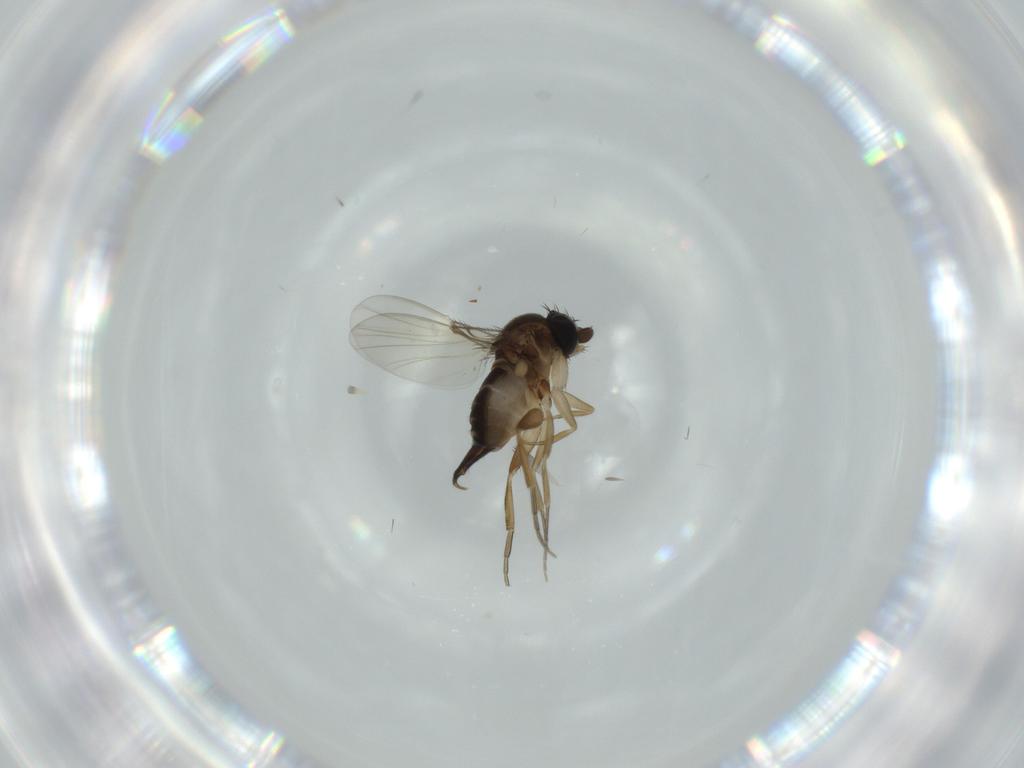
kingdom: Animalia
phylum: Arthropoda
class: Insecta
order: Diptera
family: Phoridae
